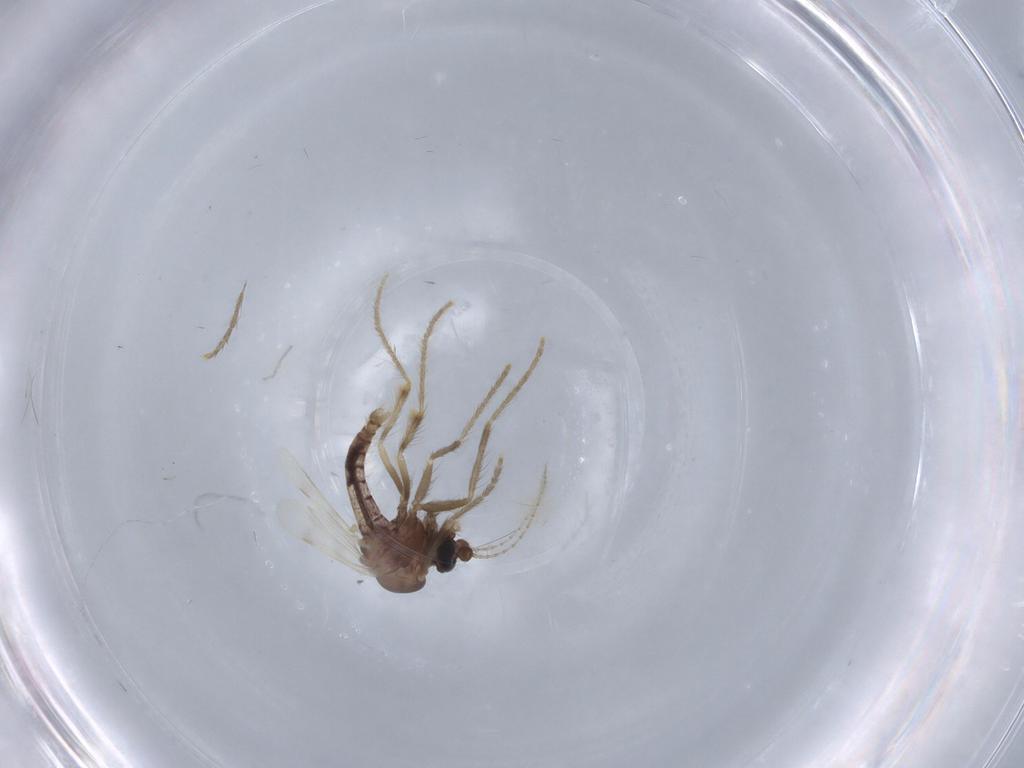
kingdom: Animalia
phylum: Arthropoda
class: Insecta
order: Diptera
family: Corethrellidae
